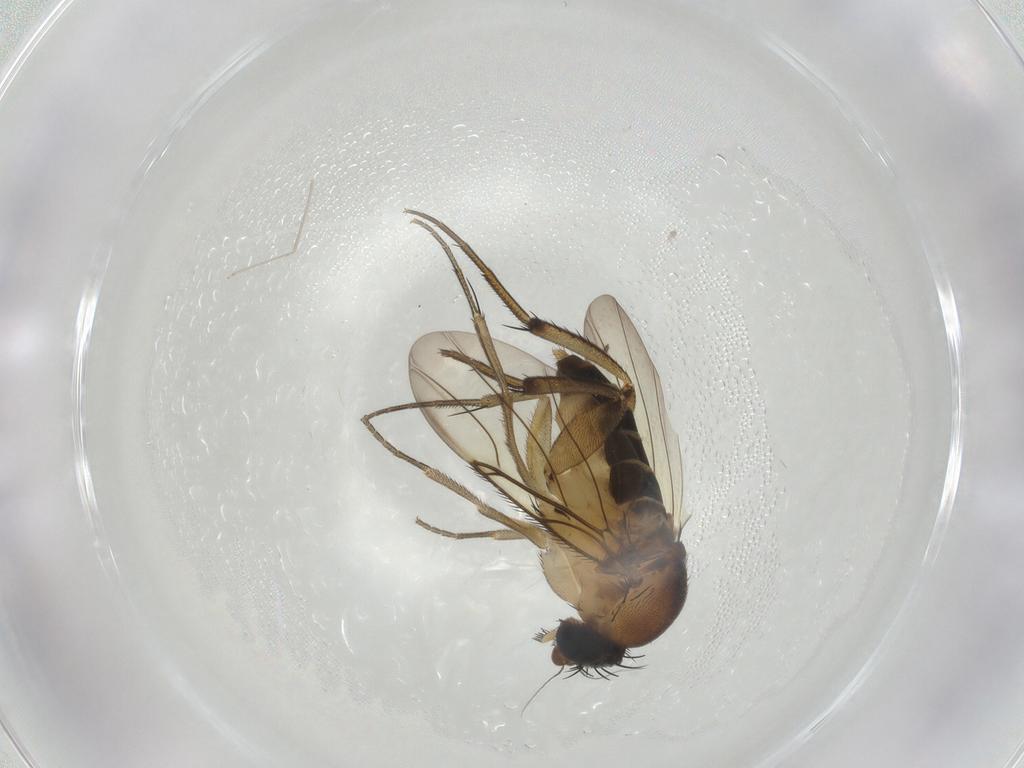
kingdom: Animalia
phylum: Arthropoda
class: Insecta
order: Diptera
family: Phoridae
